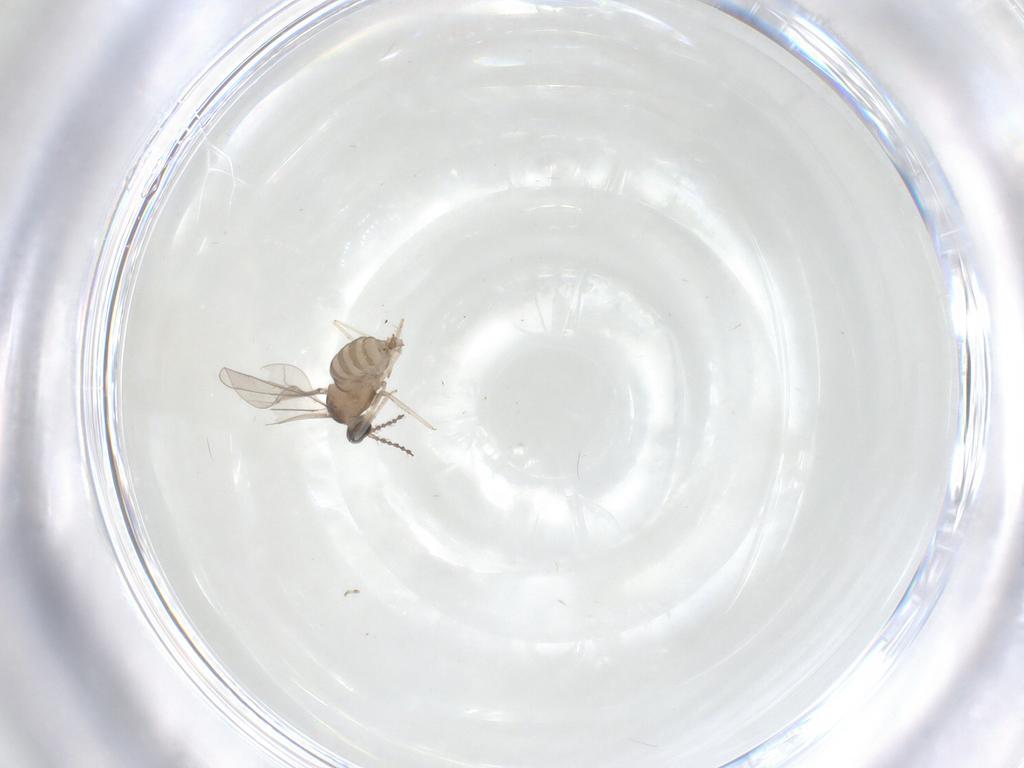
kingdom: Animalia
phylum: Arthropoda
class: Insecta
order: Diptera
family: Cecidomyiidae
